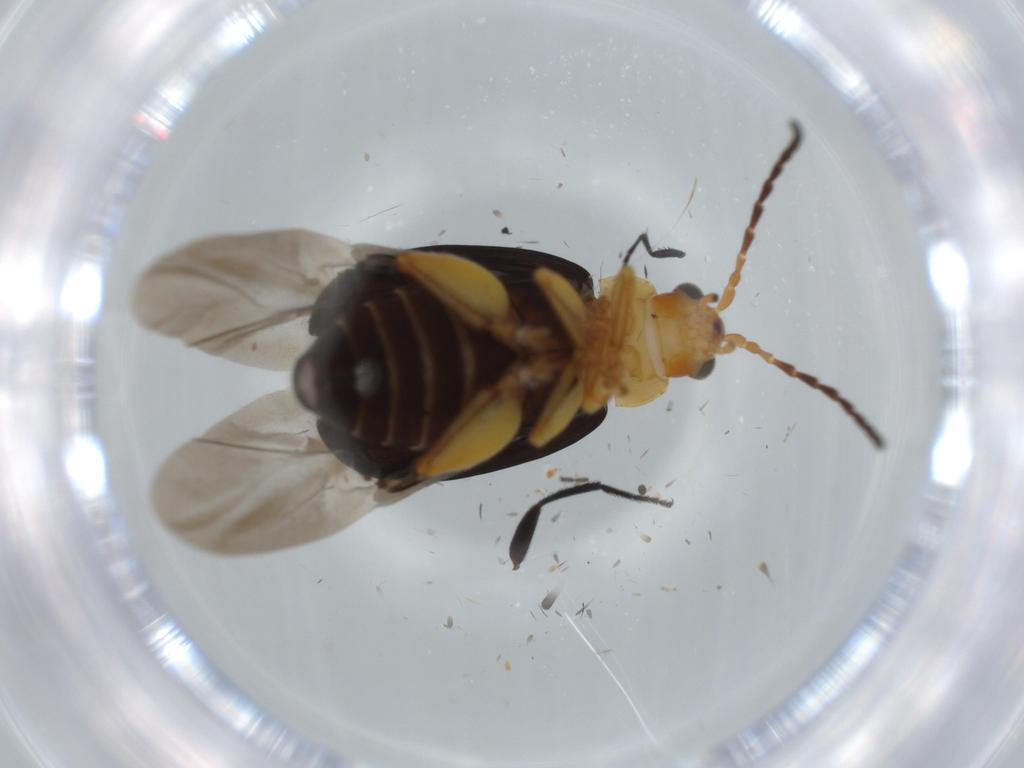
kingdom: Animalia
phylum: Arthropoda
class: Insecta
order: Coleoptera
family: Chrysomelidae
